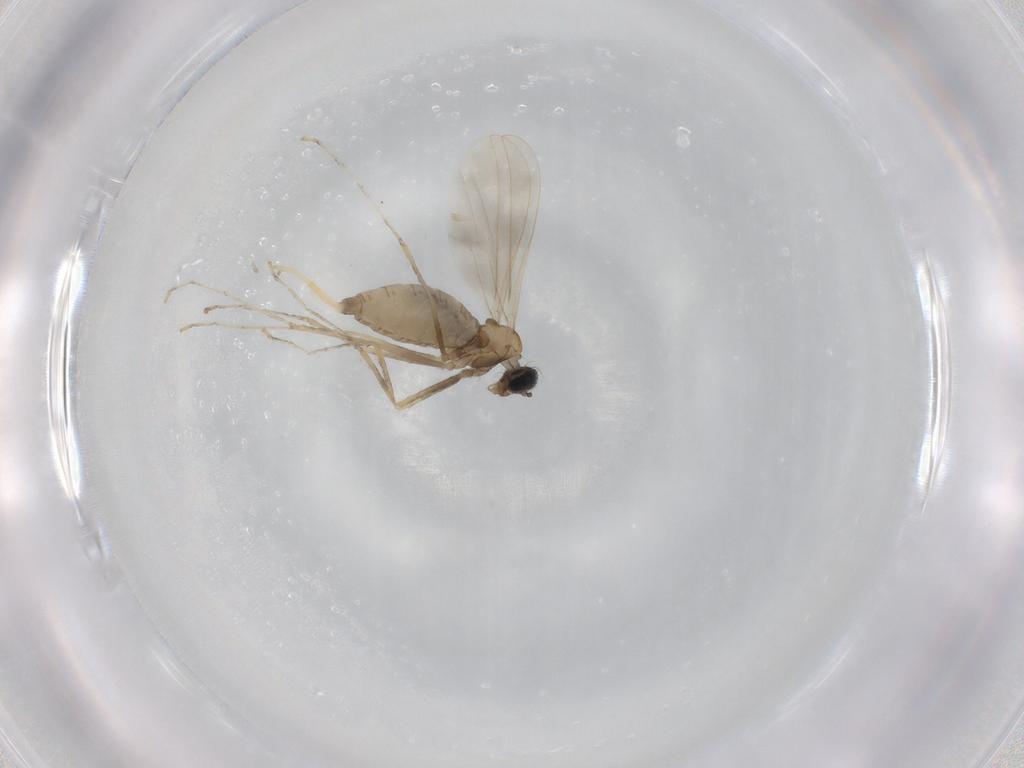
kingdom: Animalia
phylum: Arthropoda
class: Insecta
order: Diptera
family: Cecidomyiidae
